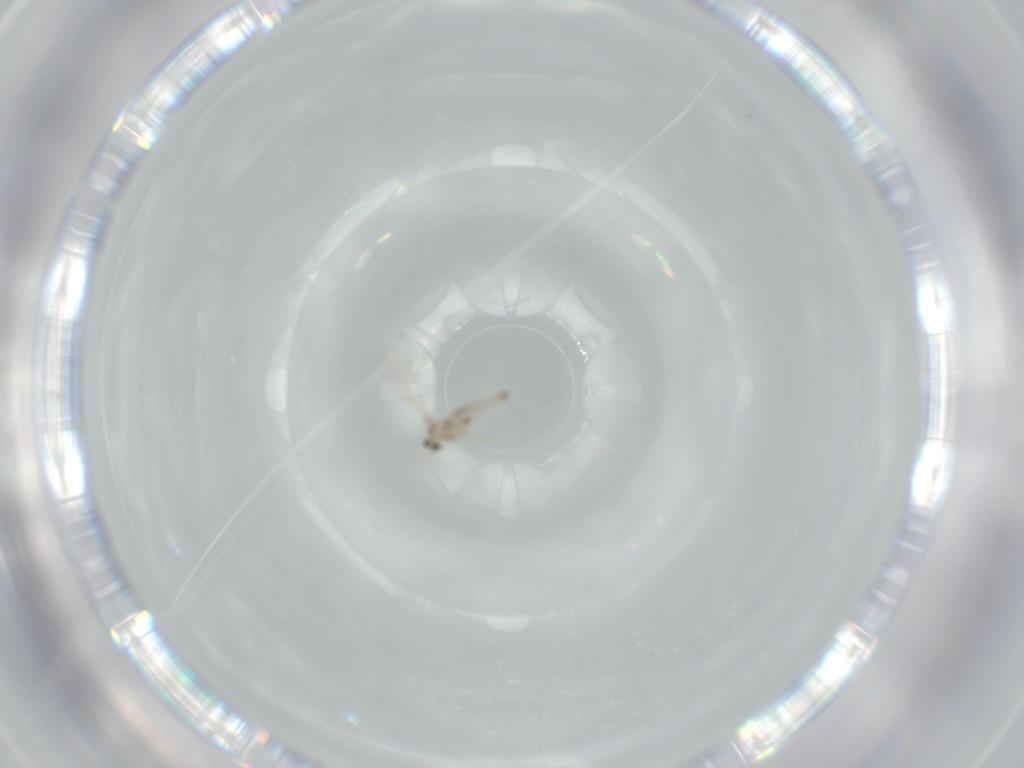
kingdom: Animalia
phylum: Arthropoda
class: Insecta
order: Diptera
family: Cecidomyiidae
